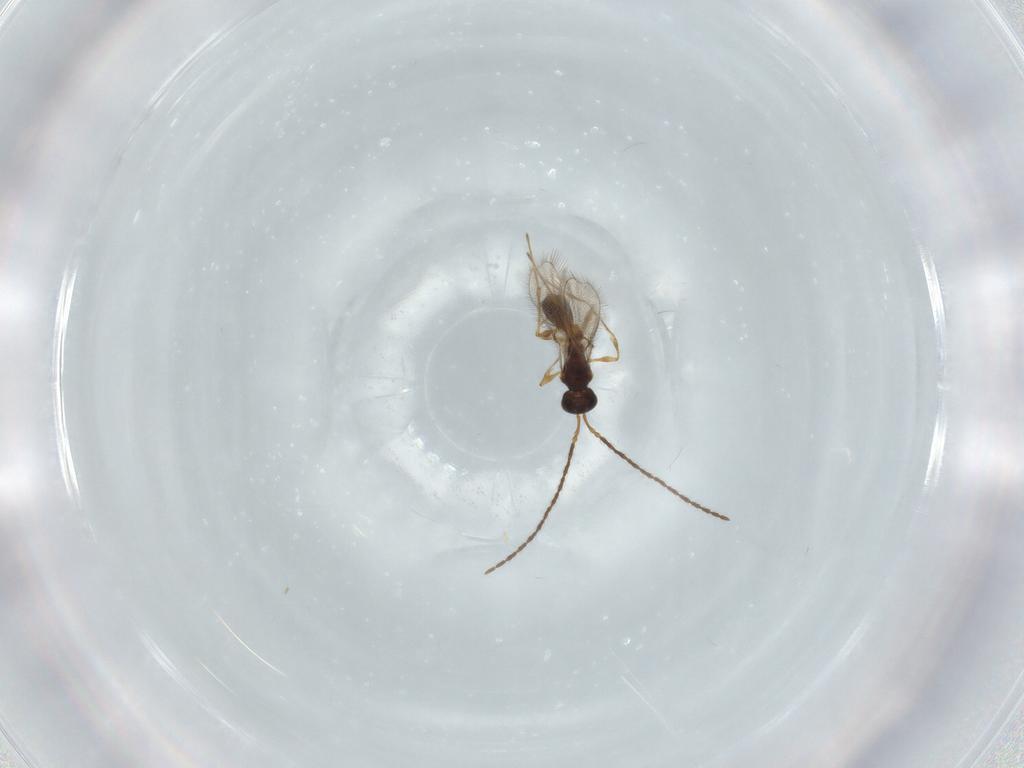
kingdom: Animalia
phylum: Arthropoda
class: Insecta
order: Hymenoptera
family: Diapriidae
